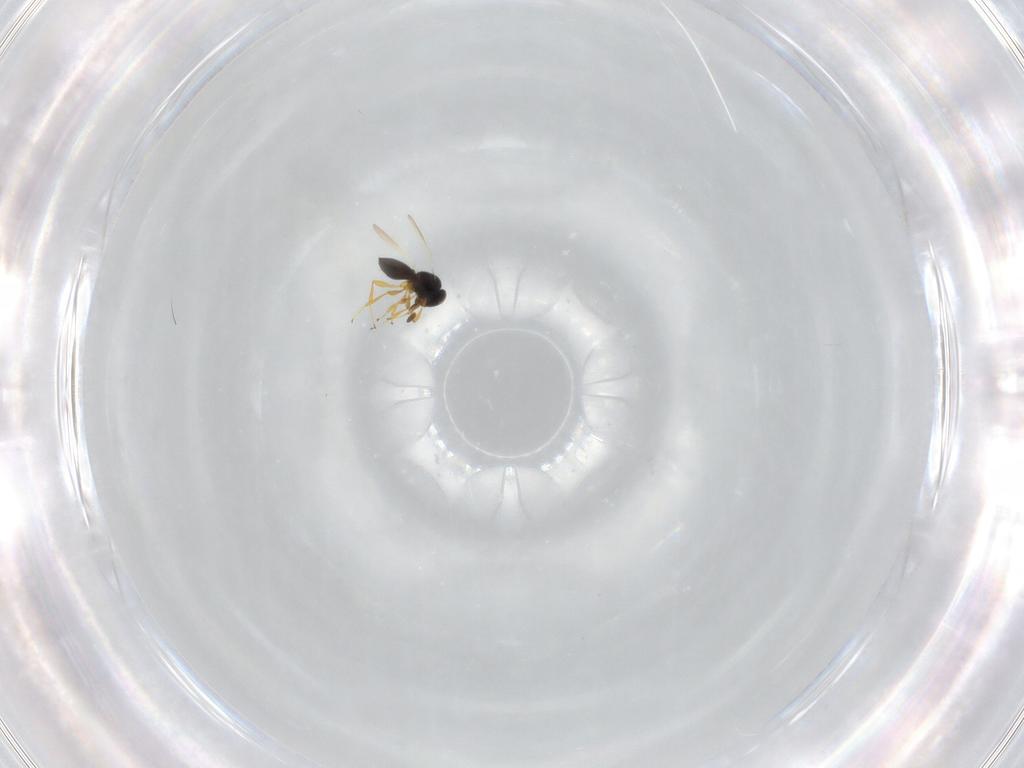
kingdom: Animalia
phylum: Arthropoda
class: Insecta
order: Hymenoptera
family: Platygastridae
